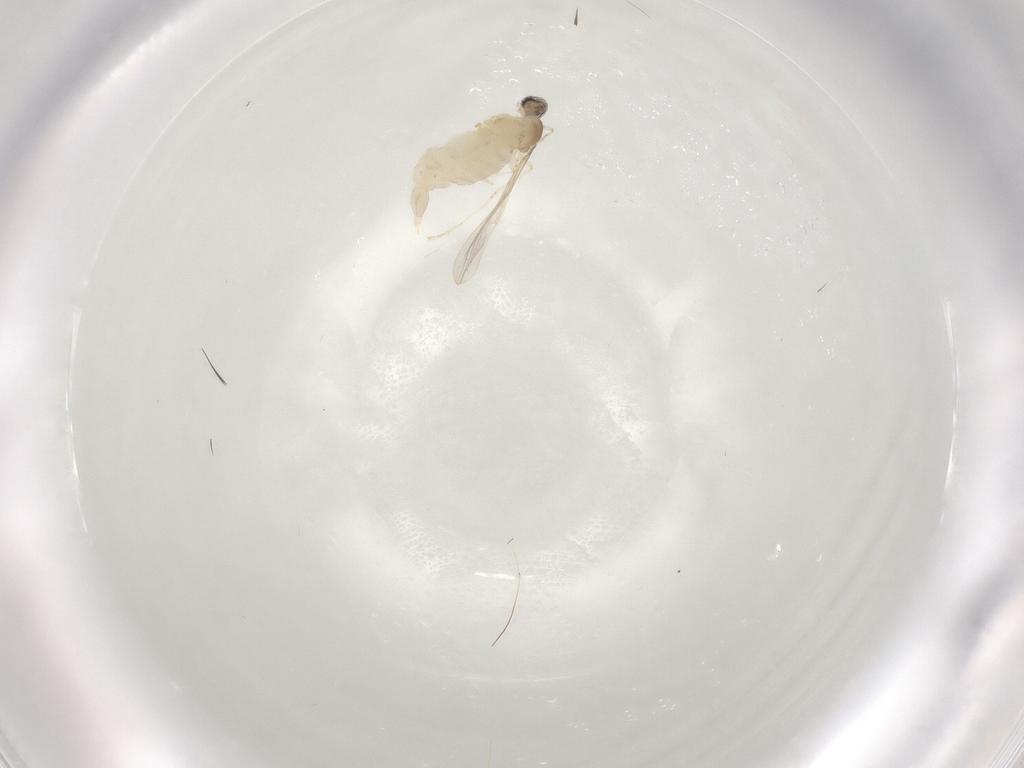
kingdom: Animalia
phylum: Arthropoda
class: Insecta
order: Diptera
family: Cecidomyiidae
